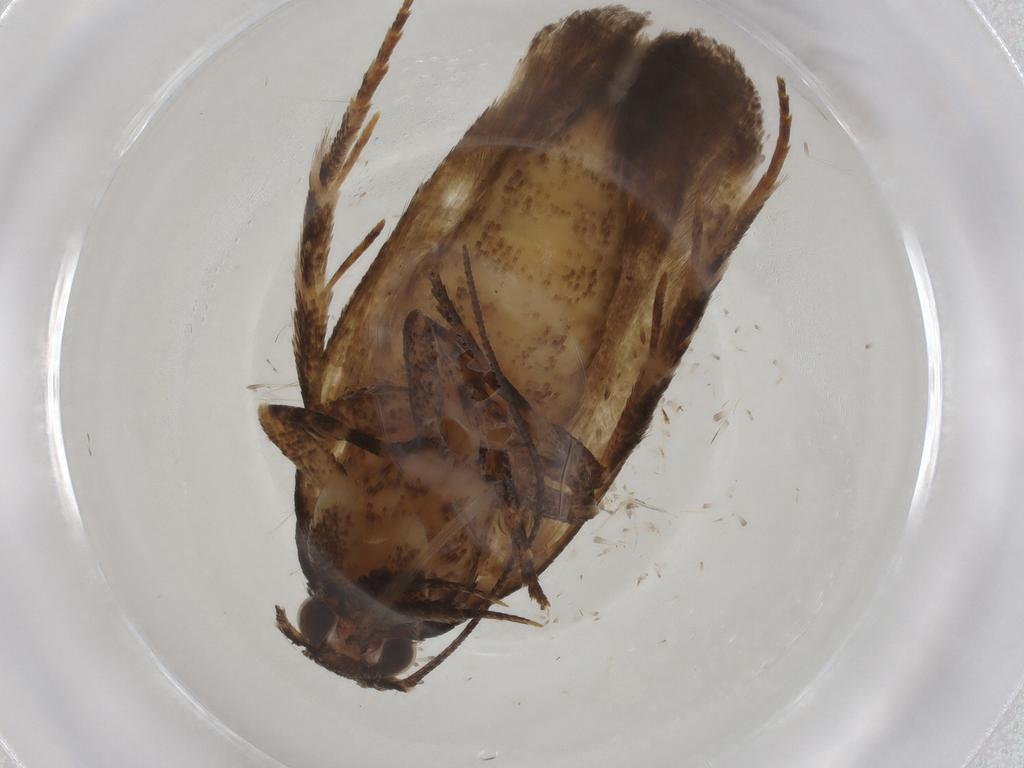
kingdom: Animalia
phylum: Arthropoda
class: Insecta
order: Lepidoptera
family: Gelechiidae
